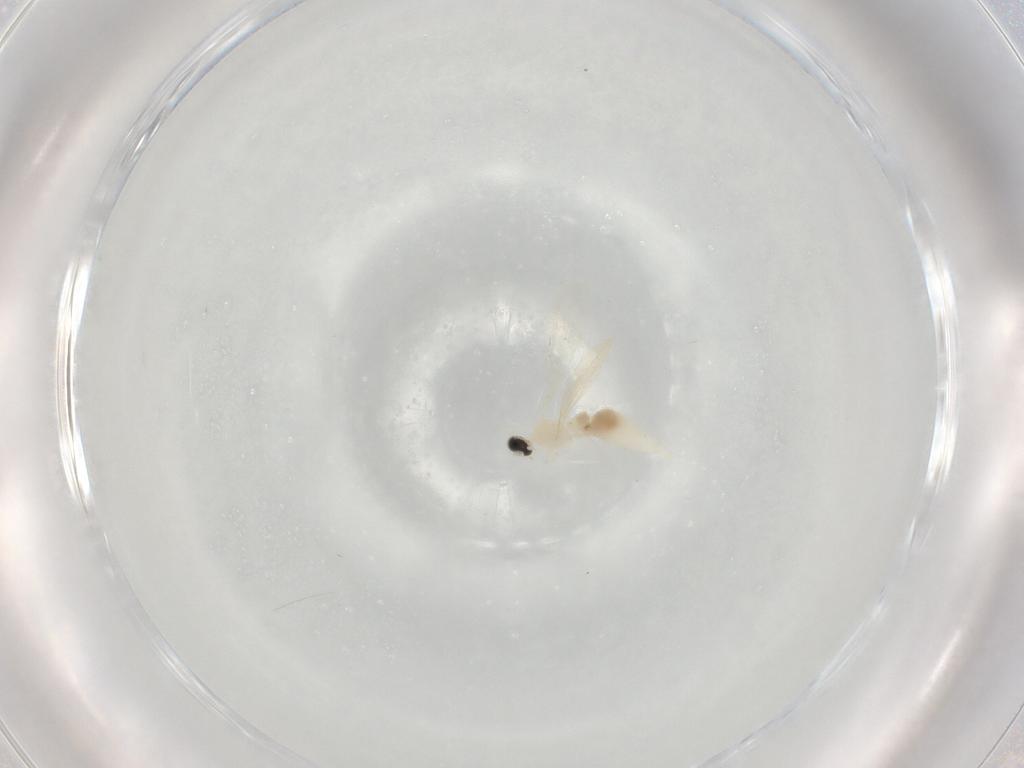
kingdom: Animalia
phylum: Arthropoda
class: Insecta
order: Diptera
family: Cecidomyiidae
